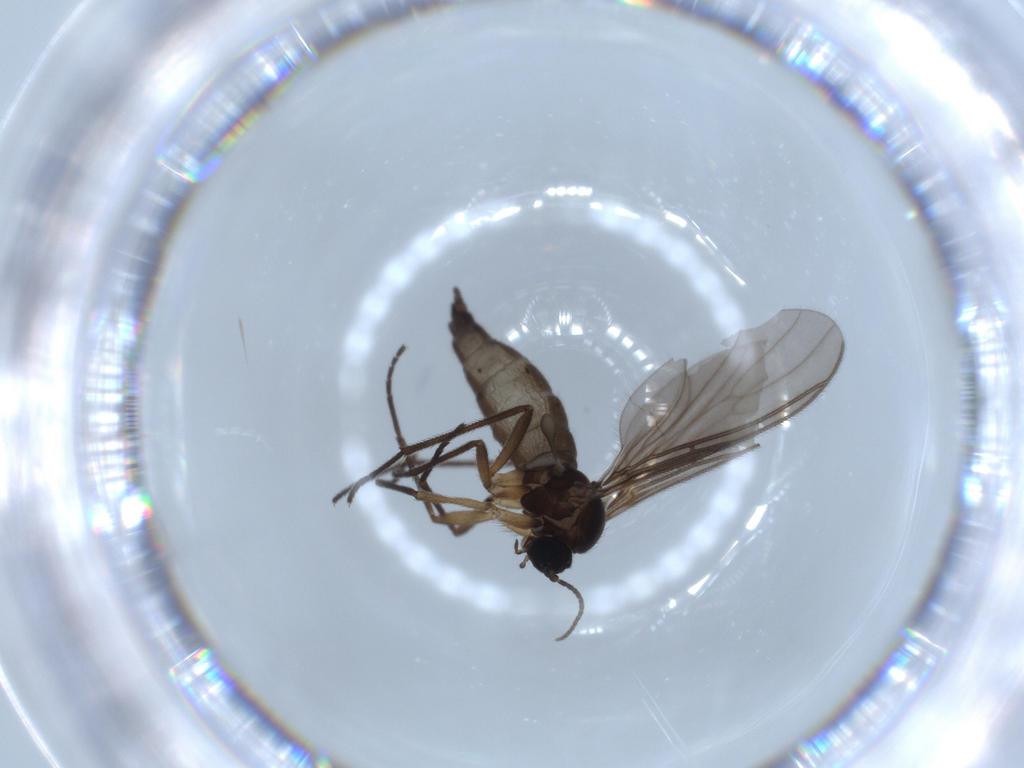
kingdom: Animalia
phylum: Arthropoda
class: Insecta
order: Diptera
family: Sciaridae
